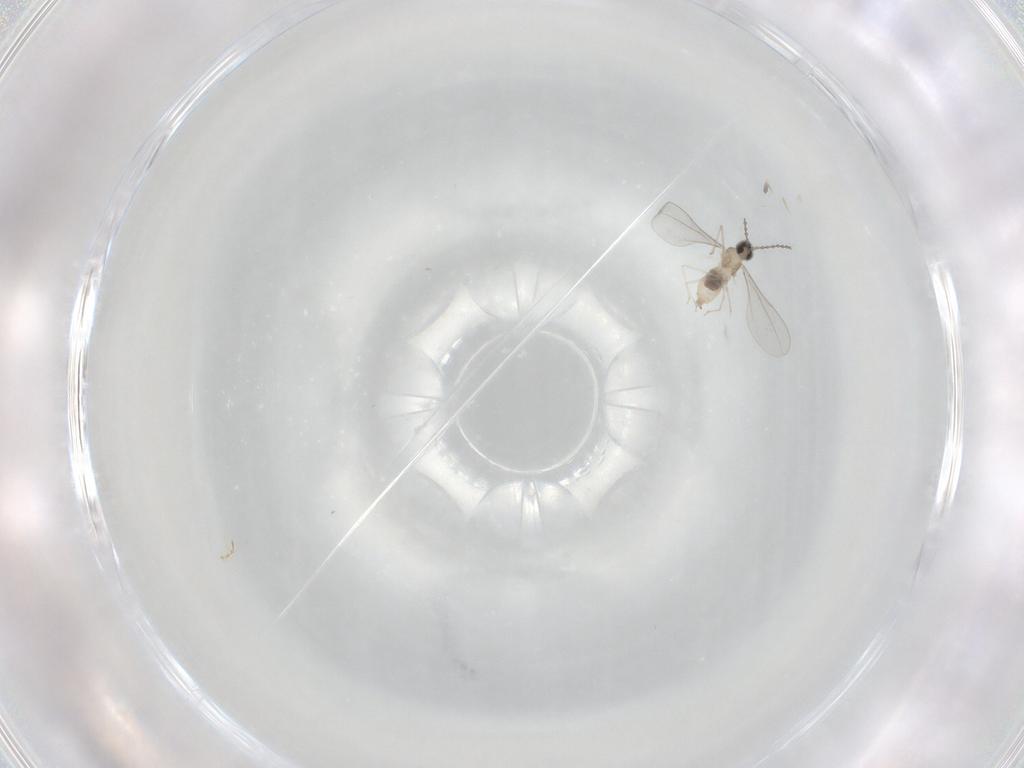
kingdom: Animalia
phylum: Arthropoda
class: Insecta
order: Diptera
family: Cecidomyiidae
